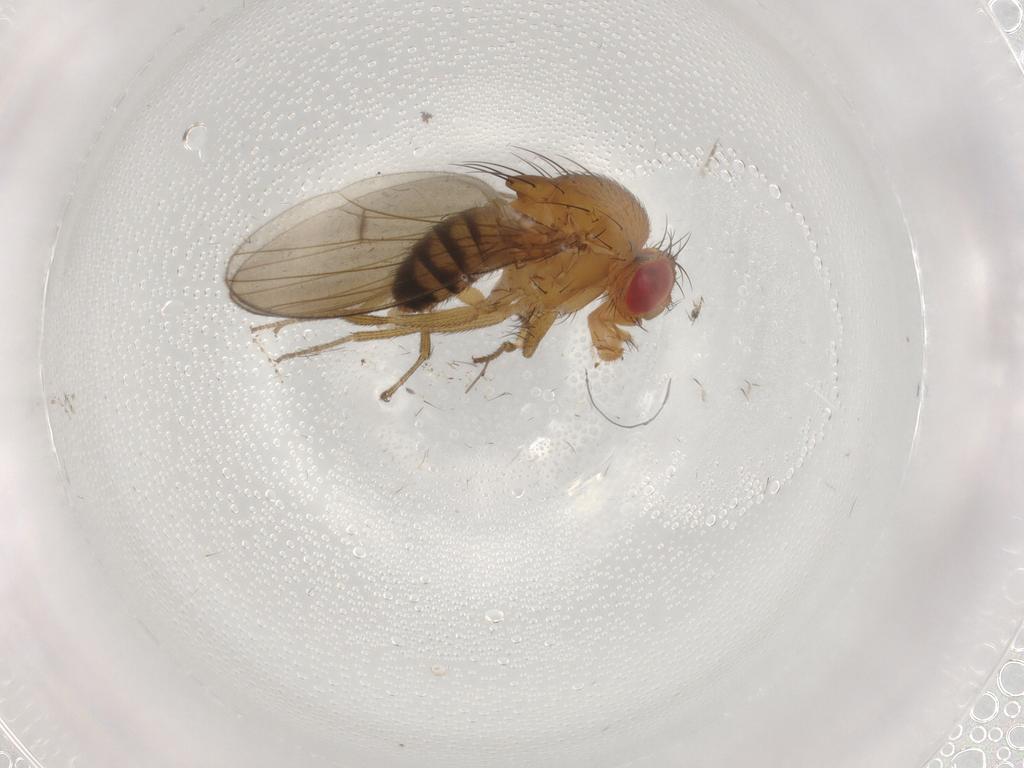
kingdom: Animalia
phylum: Arthropoda
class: Insecta
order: Diptera
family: Drosophilidae
